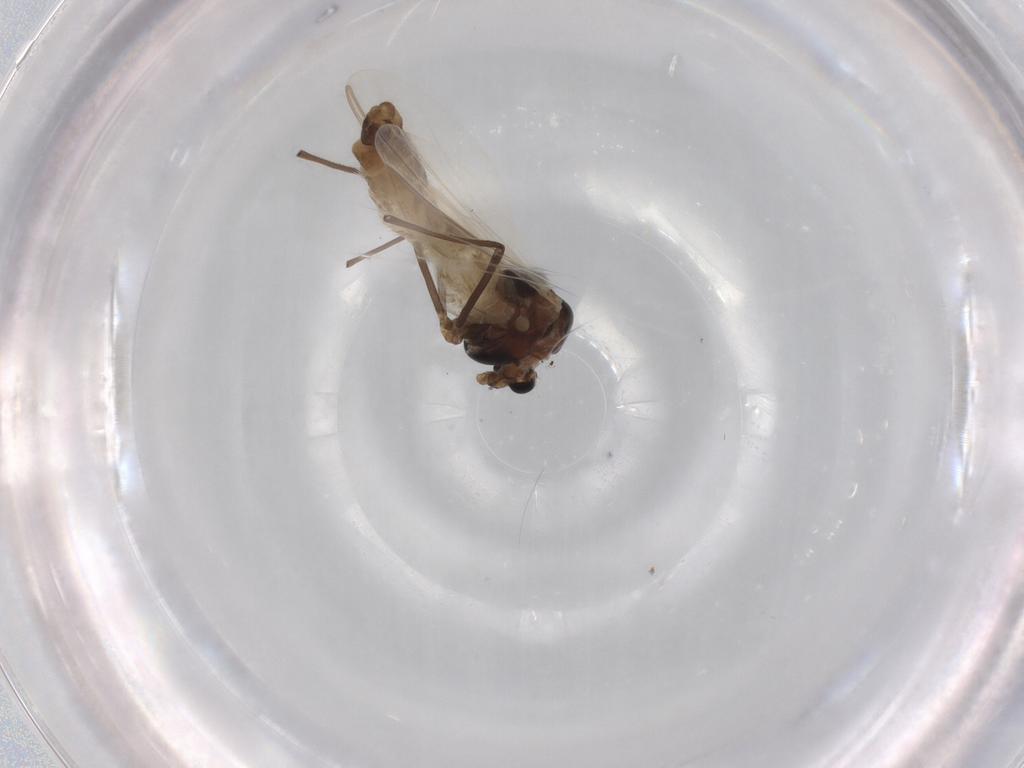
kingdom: Animalia
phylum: Arthropoda
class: Insecta
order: Diptera
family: Chironomidae
